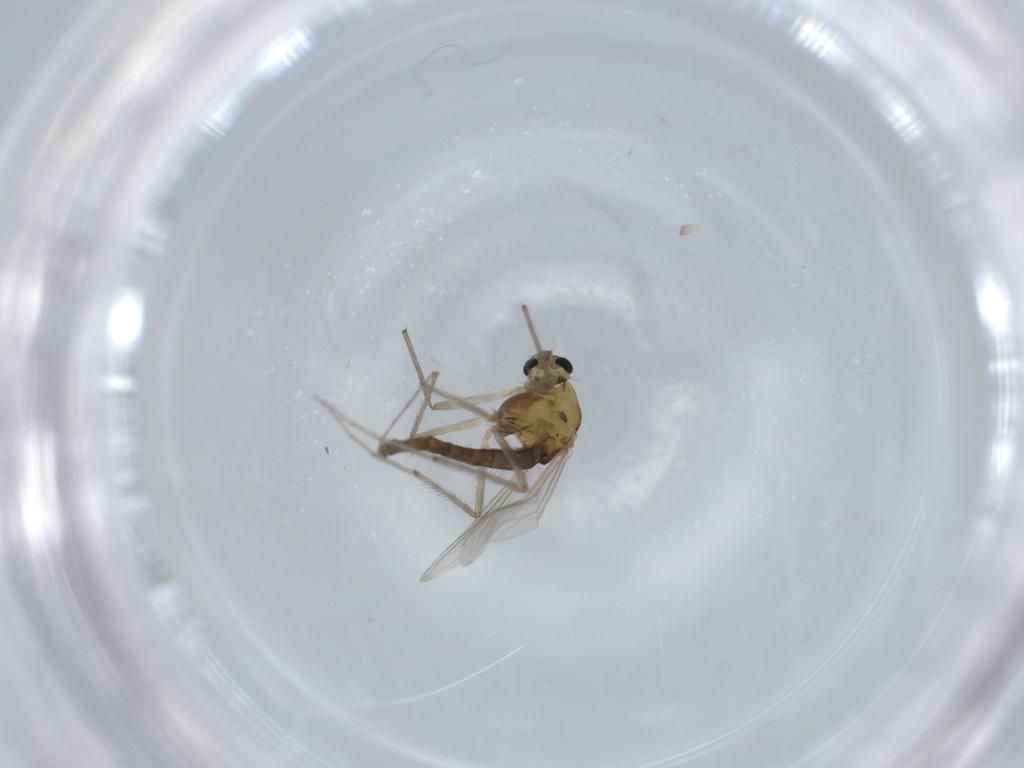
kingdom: Animalia
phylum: Arthropoda
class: Insecta
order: Diptera
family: Chironomidae
